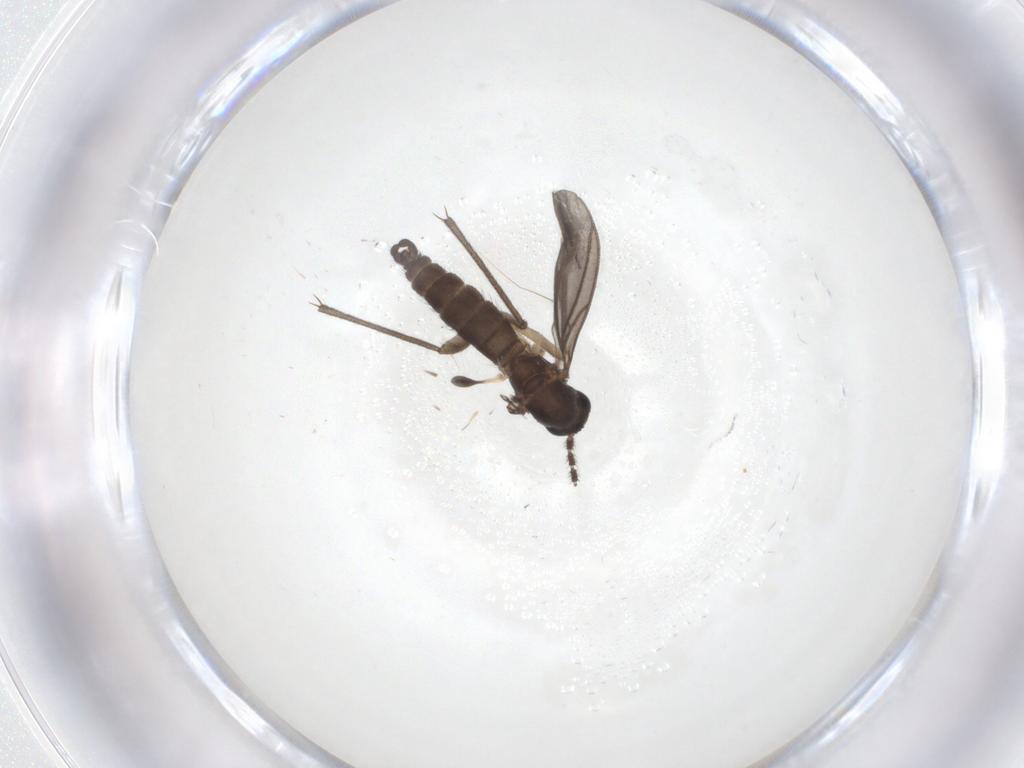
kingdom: Animalia
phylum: Arthropoda
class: Insecta
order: Diptera
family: Sciaridae
